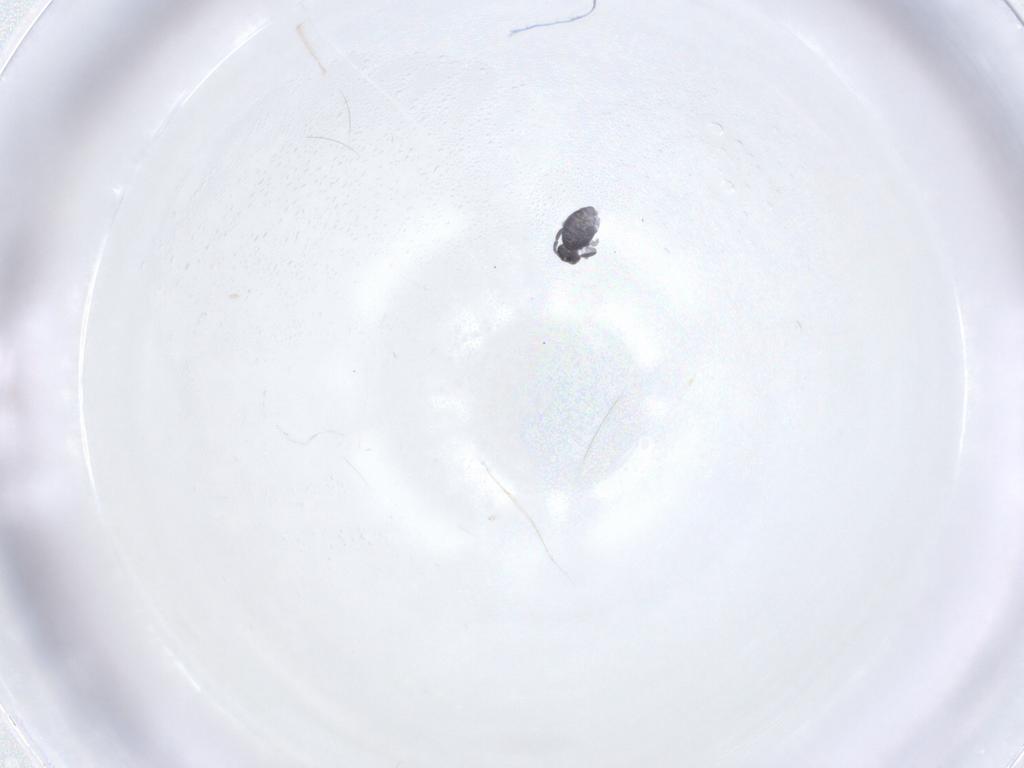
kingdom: Animalia
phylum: Arthropoda
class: Collembola
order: Symphypleona
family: Katiannidae
